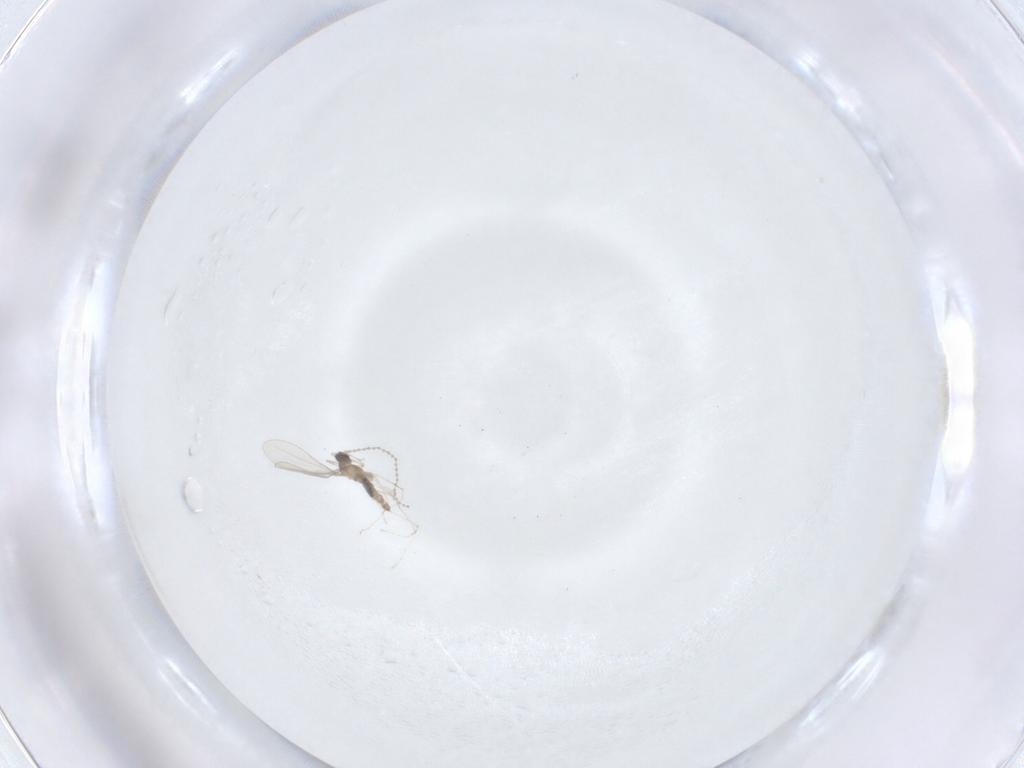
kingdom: Animalia
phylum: Arthropoda
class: Insecta
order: Diptera
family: Cecidomyiidae
